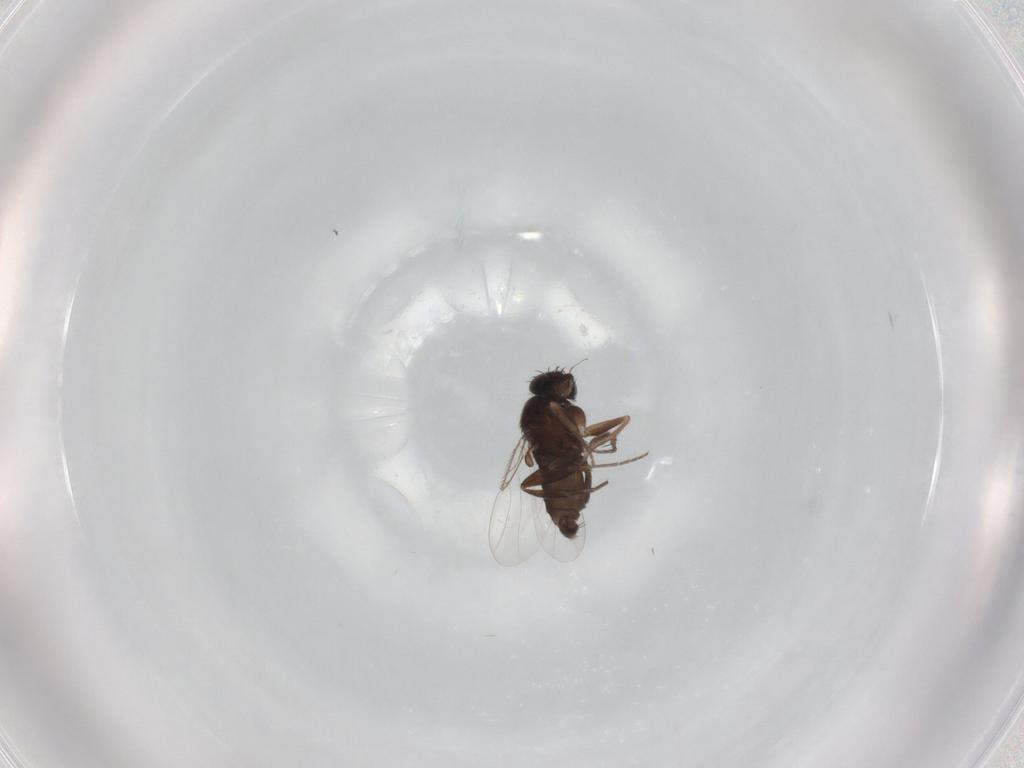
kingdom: Animalia
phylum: Arthropoda
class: Insecta
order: Diptera
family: Phoridae
